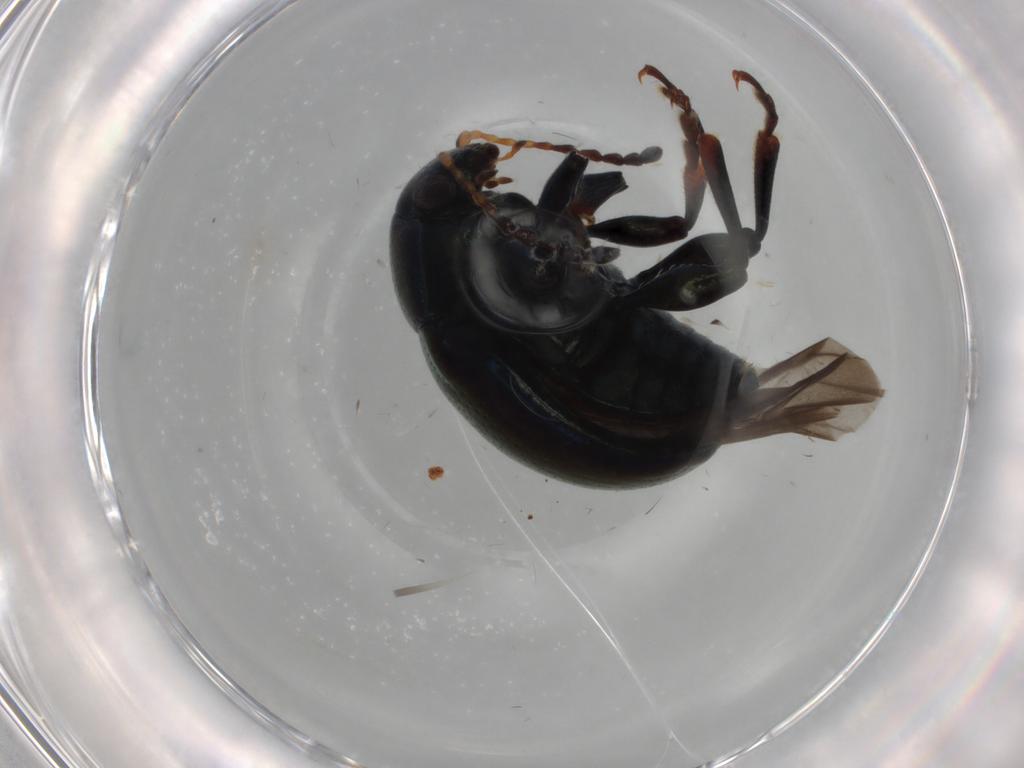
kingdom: Animalia
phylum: Arthropoda
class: Insecta
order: Coleoptera
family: Chrysomelidae
